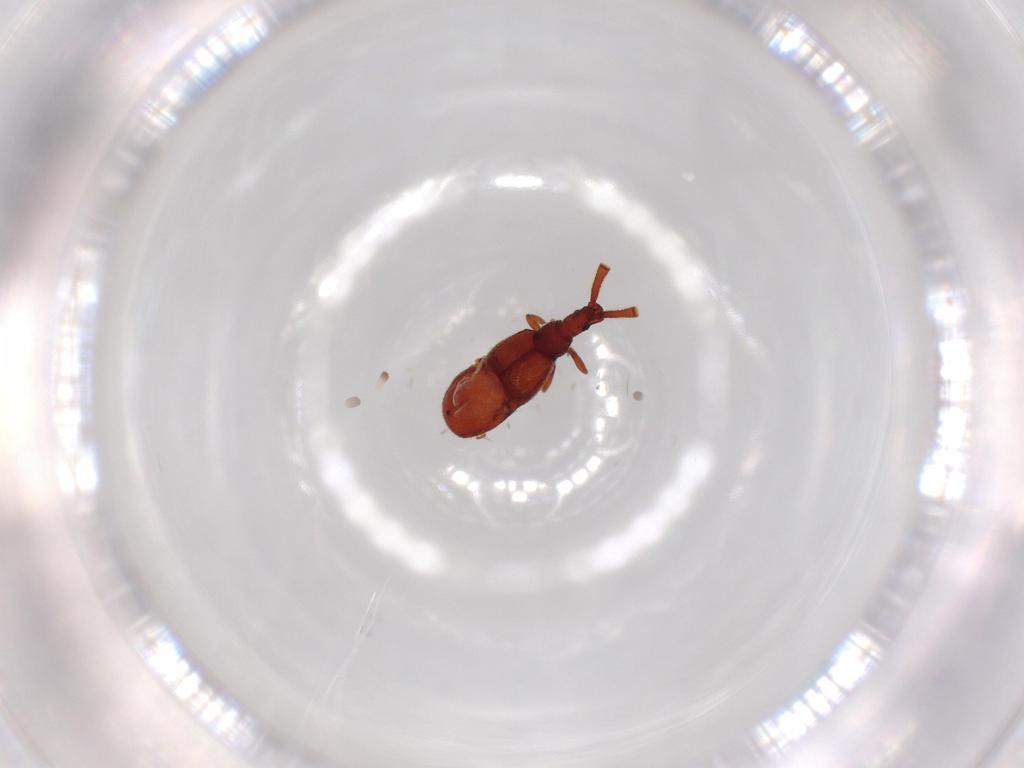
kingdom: Animalia
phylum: Arthropoda
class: Insecta
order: Coleoptera
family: Staphylinidae
